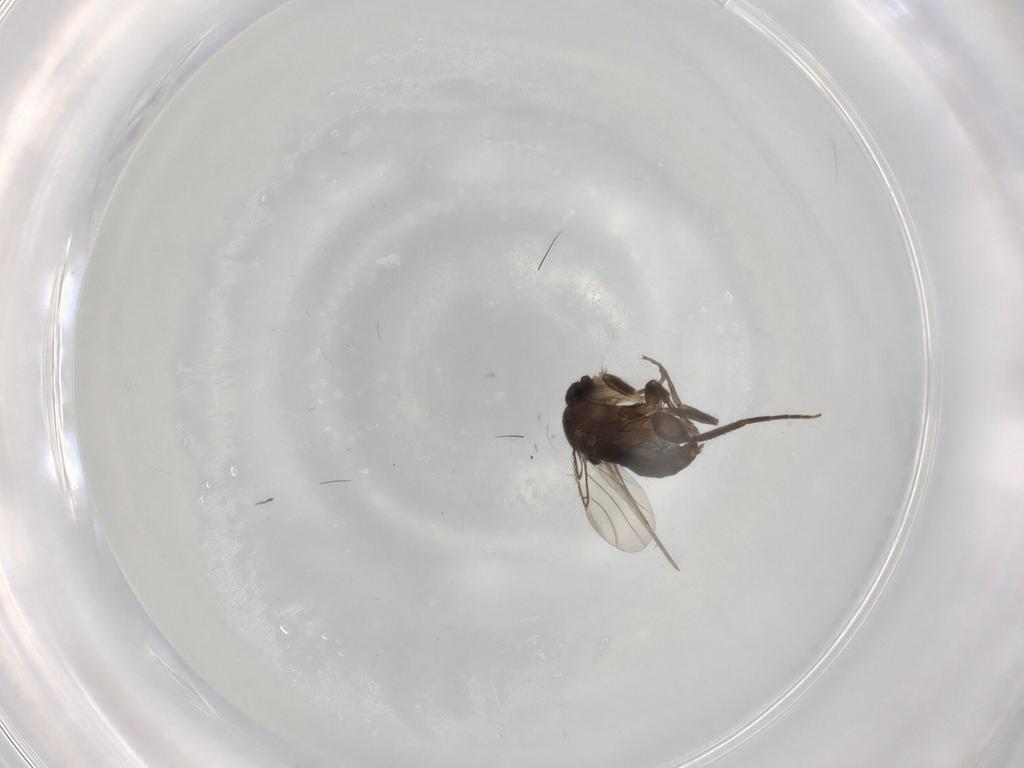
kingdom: Animalia
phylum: Arthropoda
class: Insecta
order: Diptera
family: Phoridae
